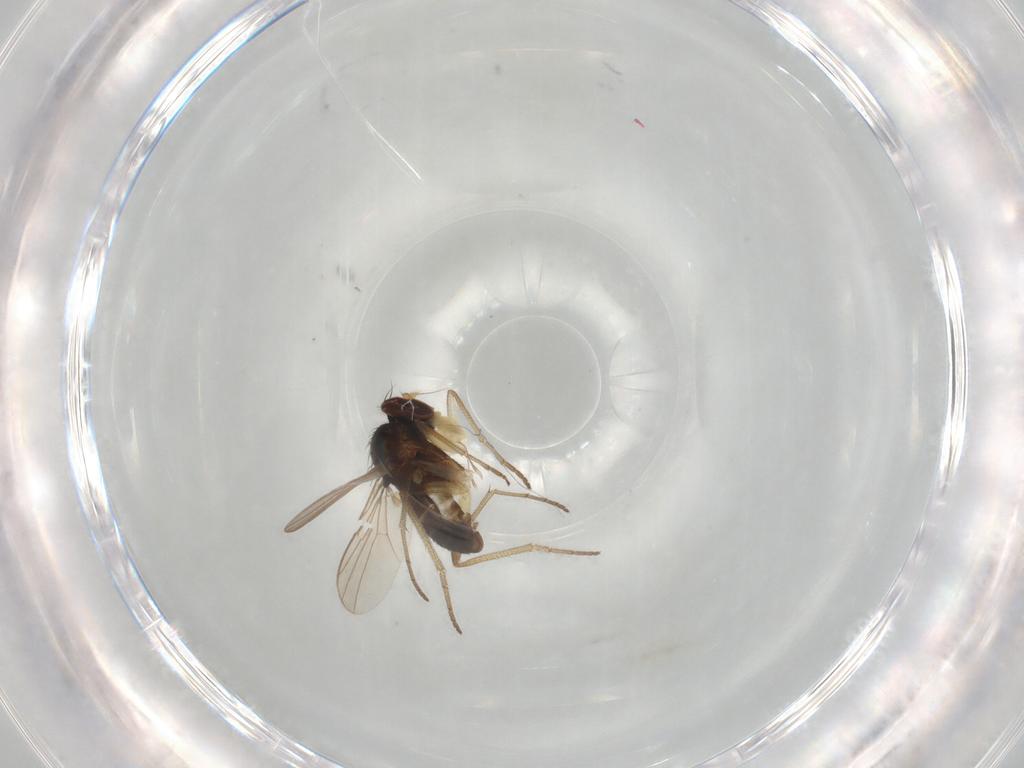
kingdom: Animalia
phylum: Arthropoda
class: Insecta
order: Diptera
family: Dolichopodidae
